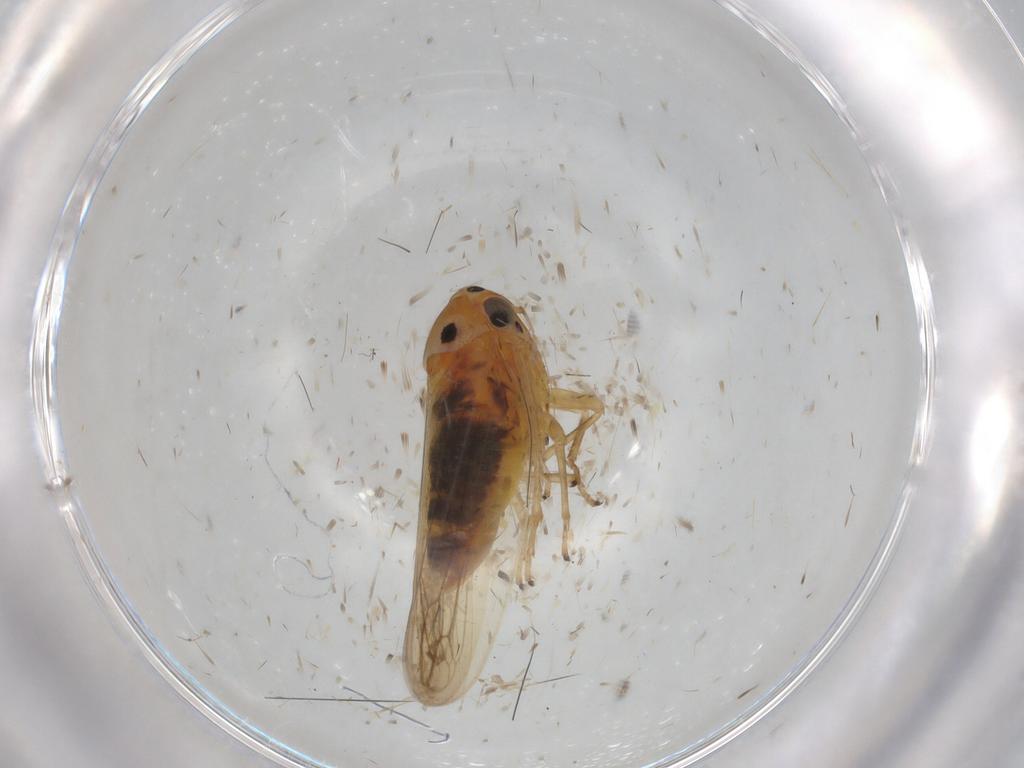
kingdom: Animalia
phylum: Arthropoda
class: Insecta
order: Hemiptera
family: Cicadellidae
